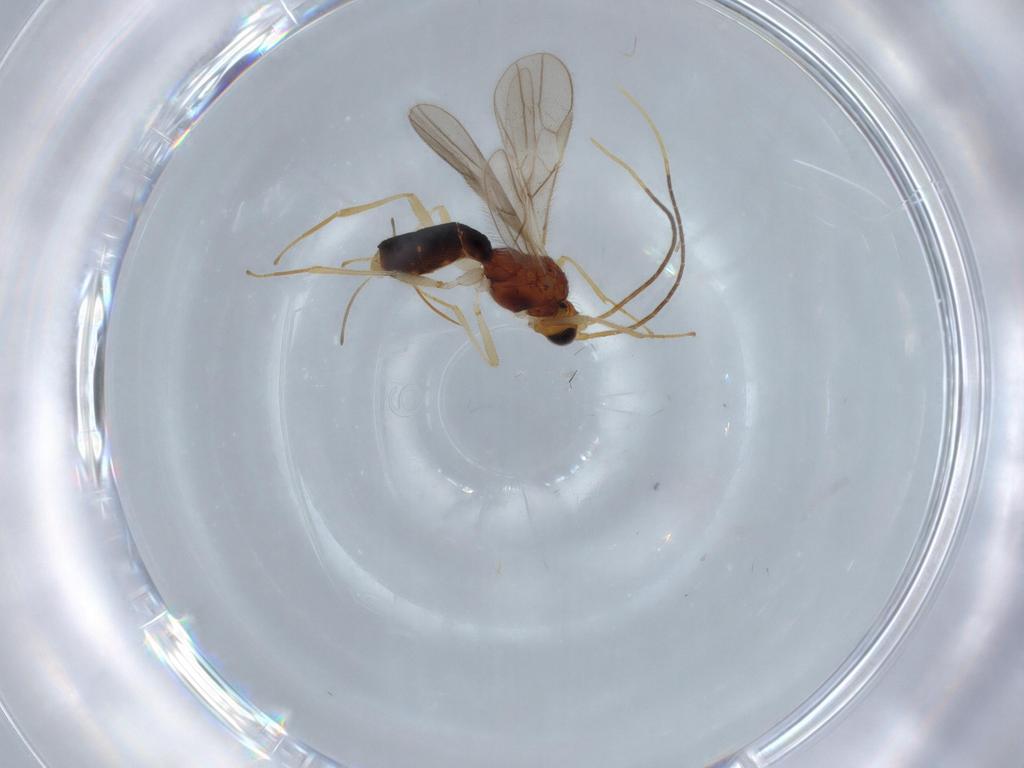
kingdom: Animalia
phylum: Arthropoda
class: Insecta
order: Hymenoptera
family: Braconidae
